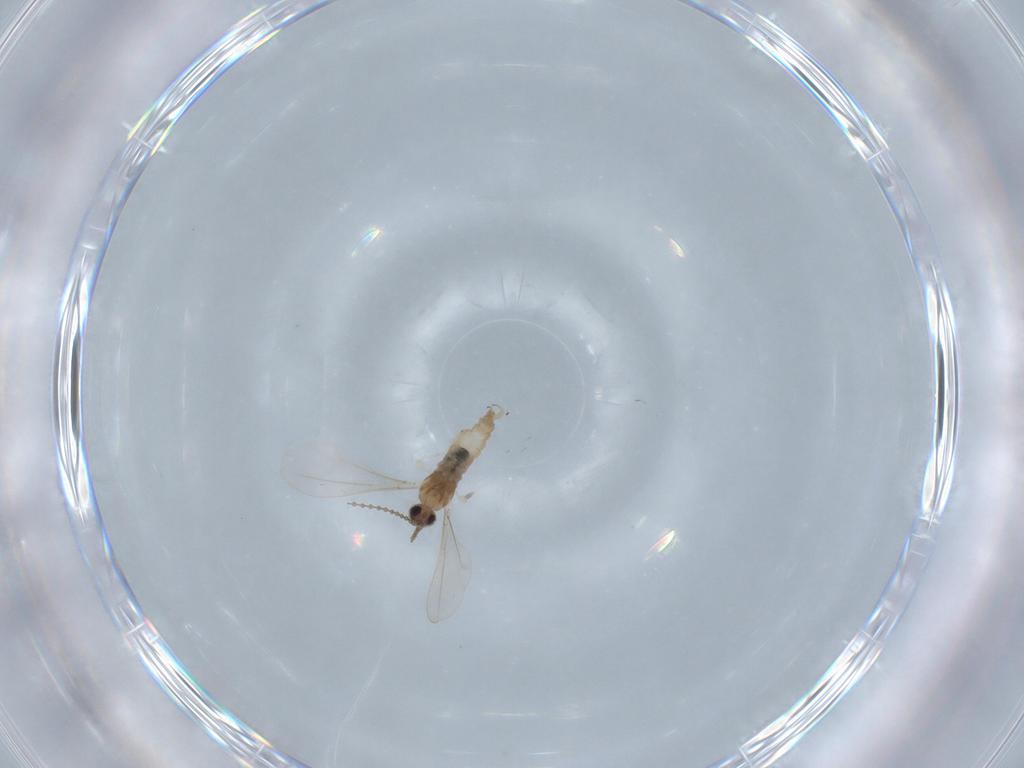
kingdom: Animalia
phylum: Arthropoda
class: Insecta
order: Diptera
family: Cecidomyiidae
